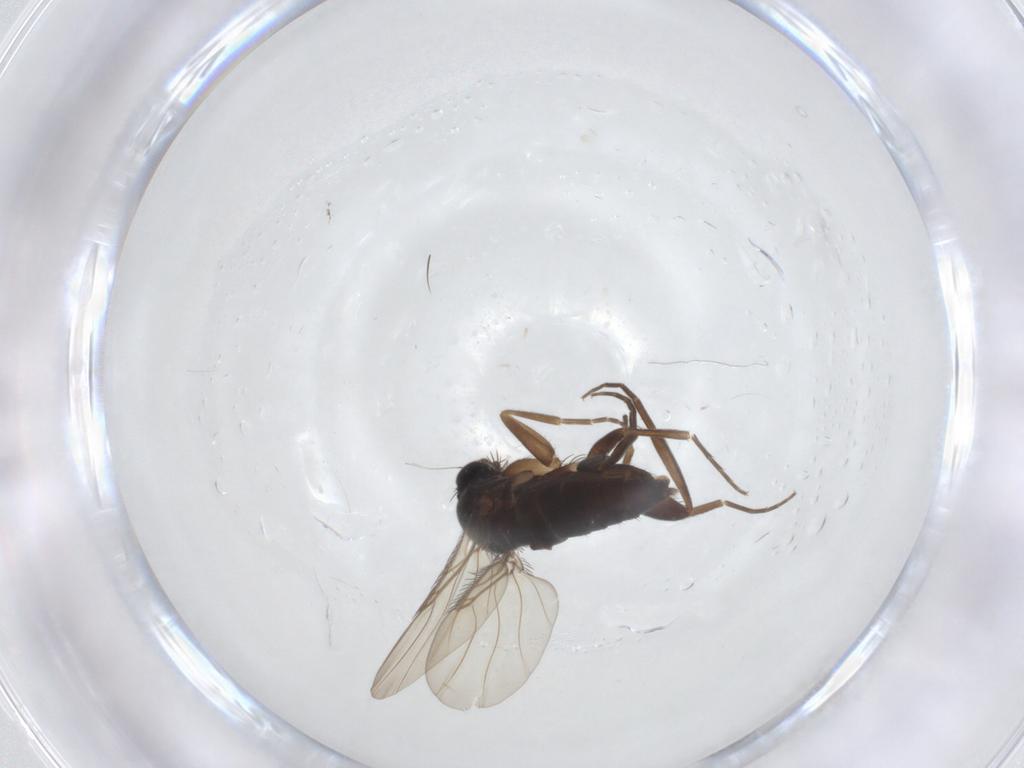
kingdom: Animalia
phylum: Arthropoda
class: Insecta
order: Diptera
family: Phoridae
